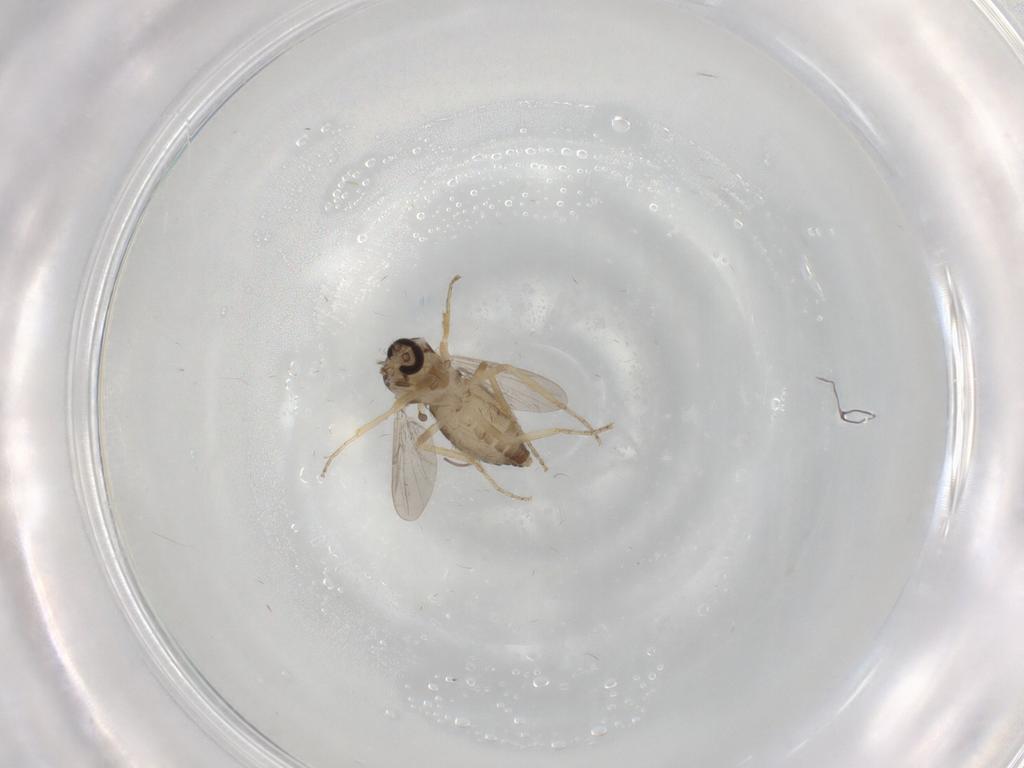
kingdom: Animalia
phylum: Arthropoda
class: Insecta
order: Diptera
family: Ceratopogonidae
